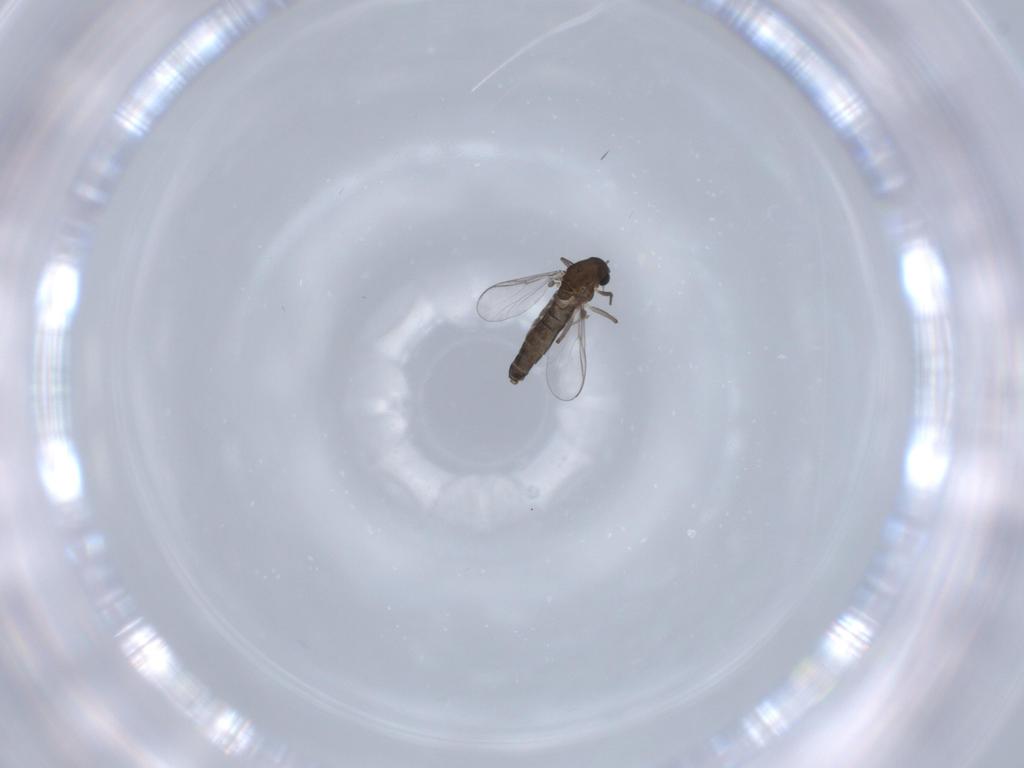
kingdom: Animalia
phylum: Arthropoda
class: Insecta
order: Diptera
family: Chironomidae
